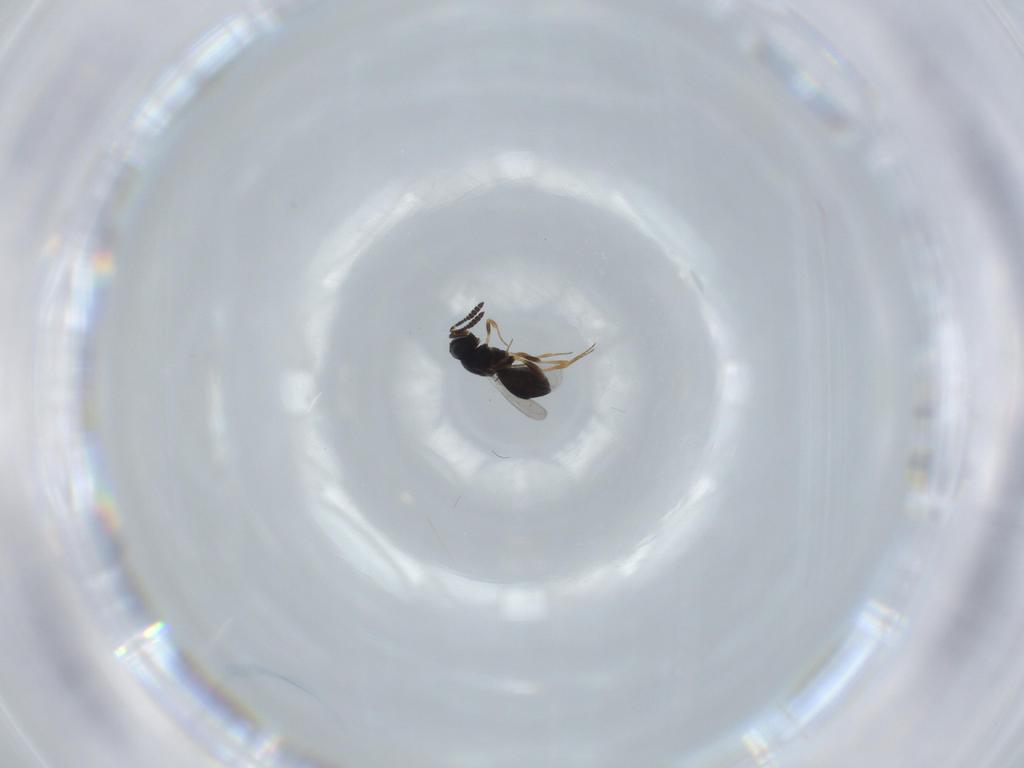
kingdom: Animalia
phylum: Arthropoda
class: Insecta
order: Hymenoptera
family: Scelionidae
